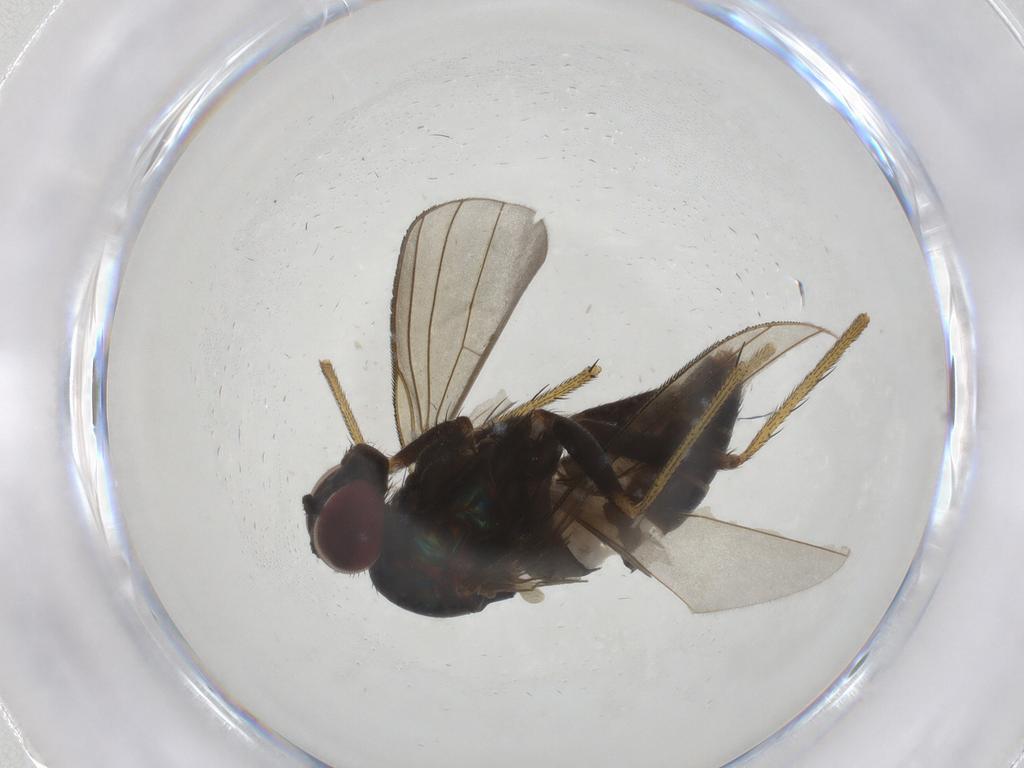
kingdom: Animalia
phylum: Arthropoda
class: Insecta
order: Diptera
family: Dolichopodidae
